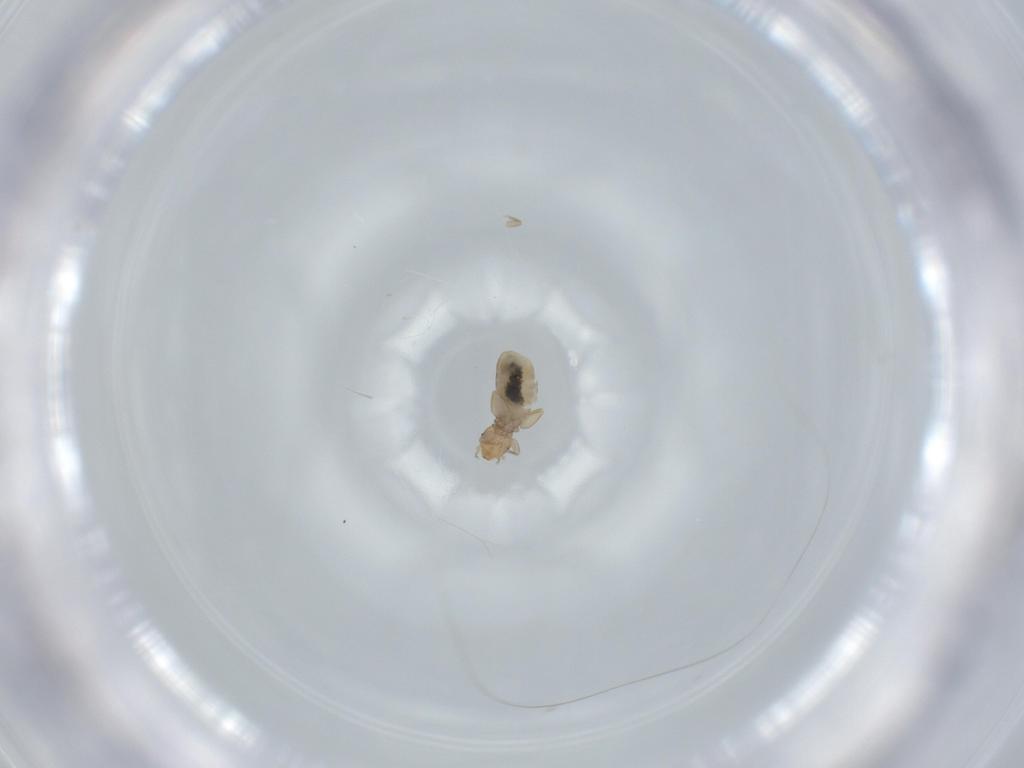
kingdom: Animalia
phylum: Arthropoda
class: Insecta
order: Psocodea
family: Liposcelididae
